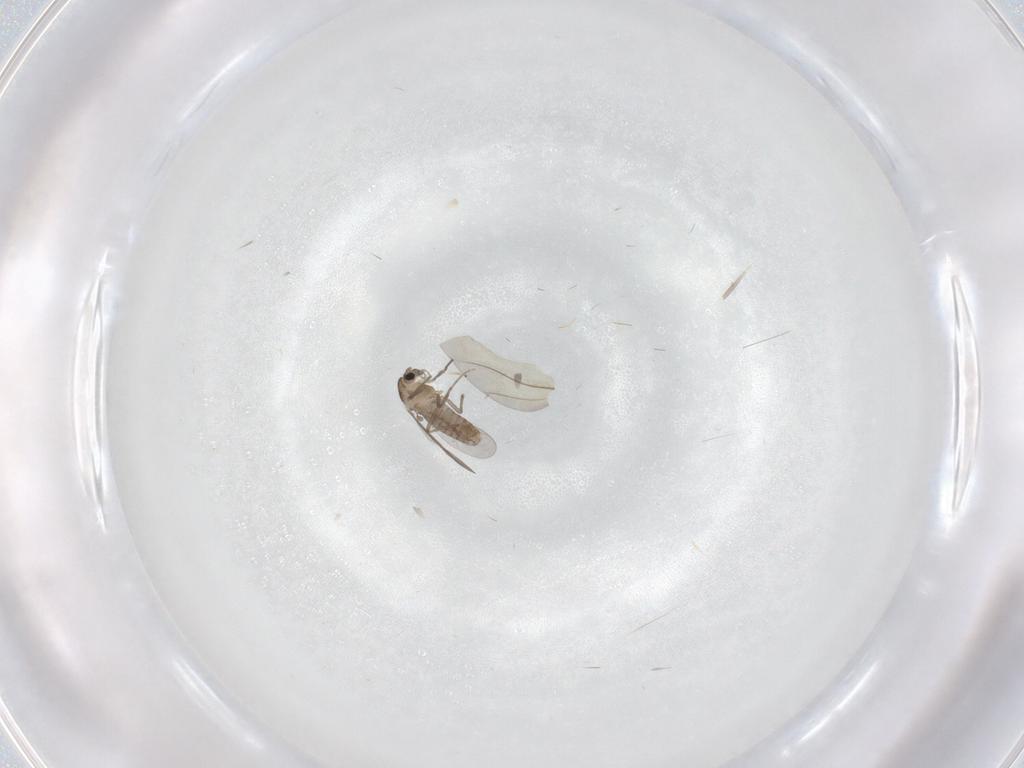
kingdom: Animalia
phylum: Arthropoda
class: Insecta
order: Diptera
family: Chironomidae
